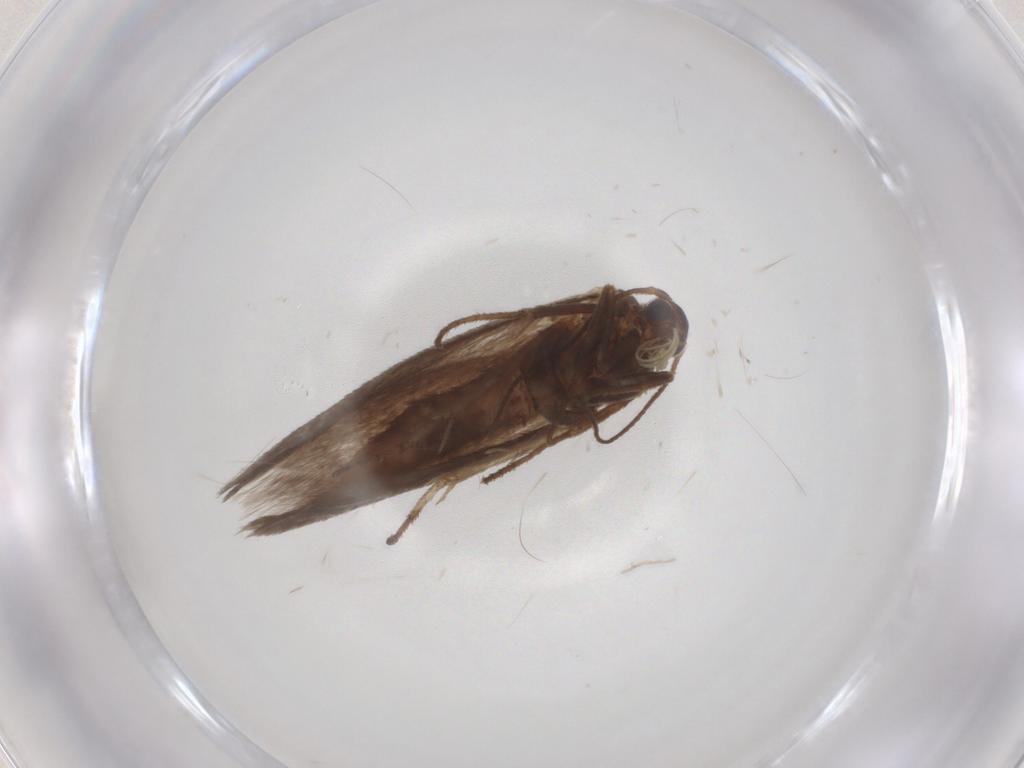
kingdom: Animalia
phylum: Arthropoda
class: Insecta
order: Lepidoptera
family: Limacodidae
